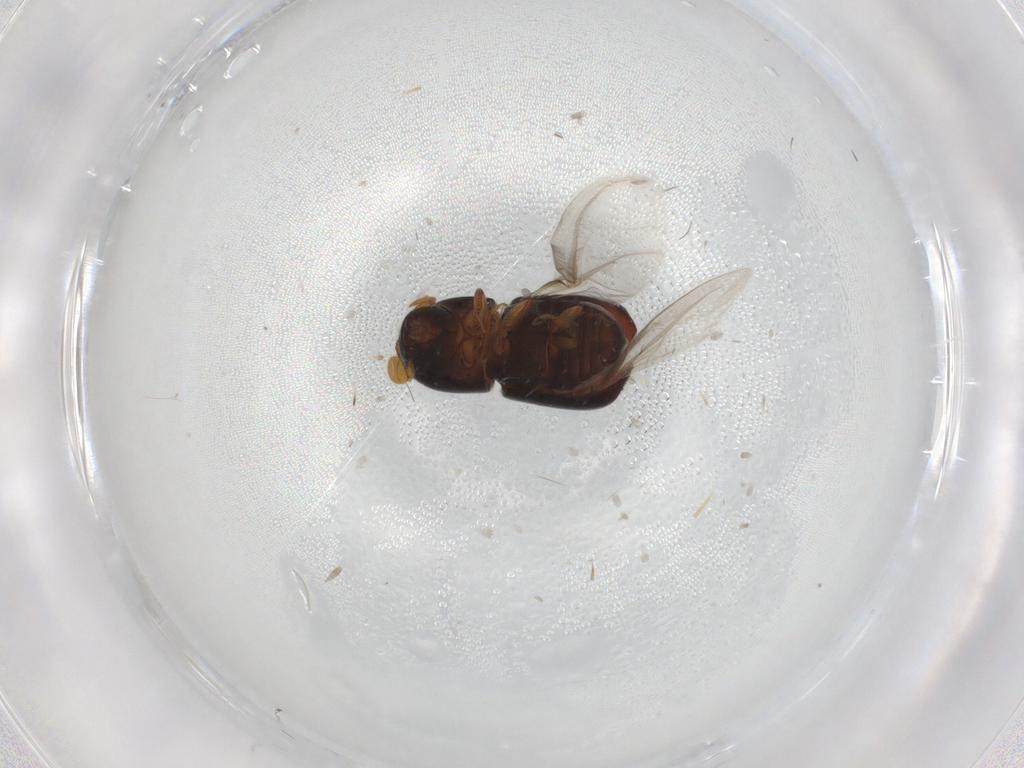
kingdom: Animalia
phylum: Arthropoda
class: Insecta
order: Coleoptera
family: Curculionidae
